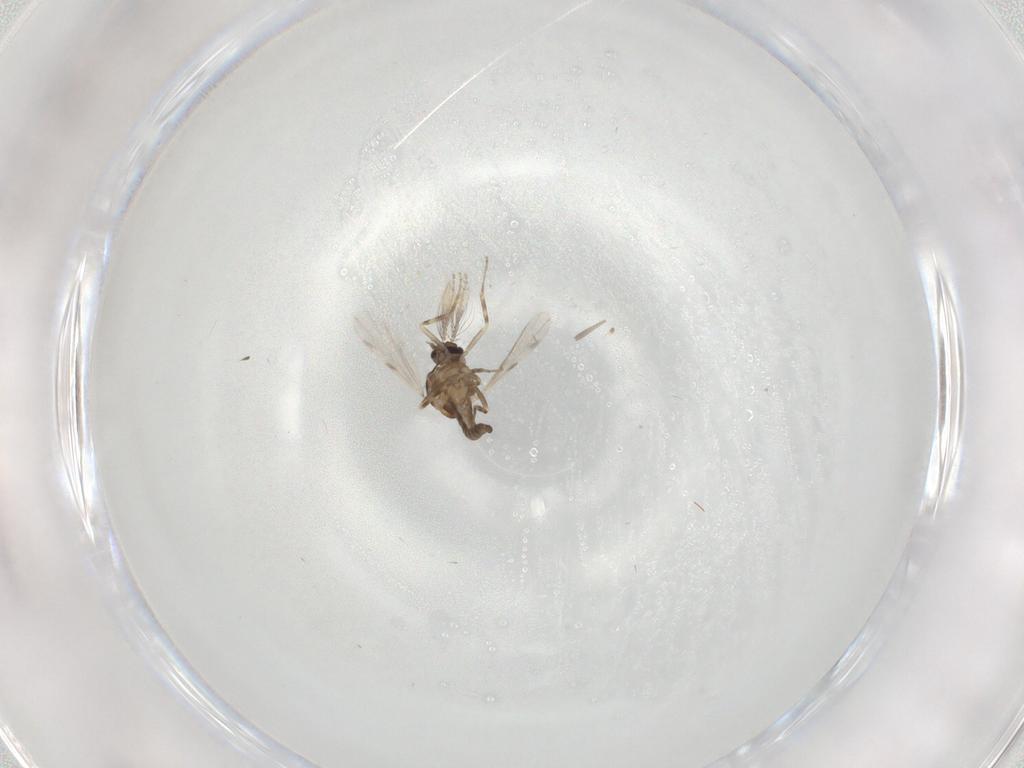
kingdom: Animalia
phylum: Arthropoda
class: Insecta
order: Diptera
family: Ceratopogonidae
